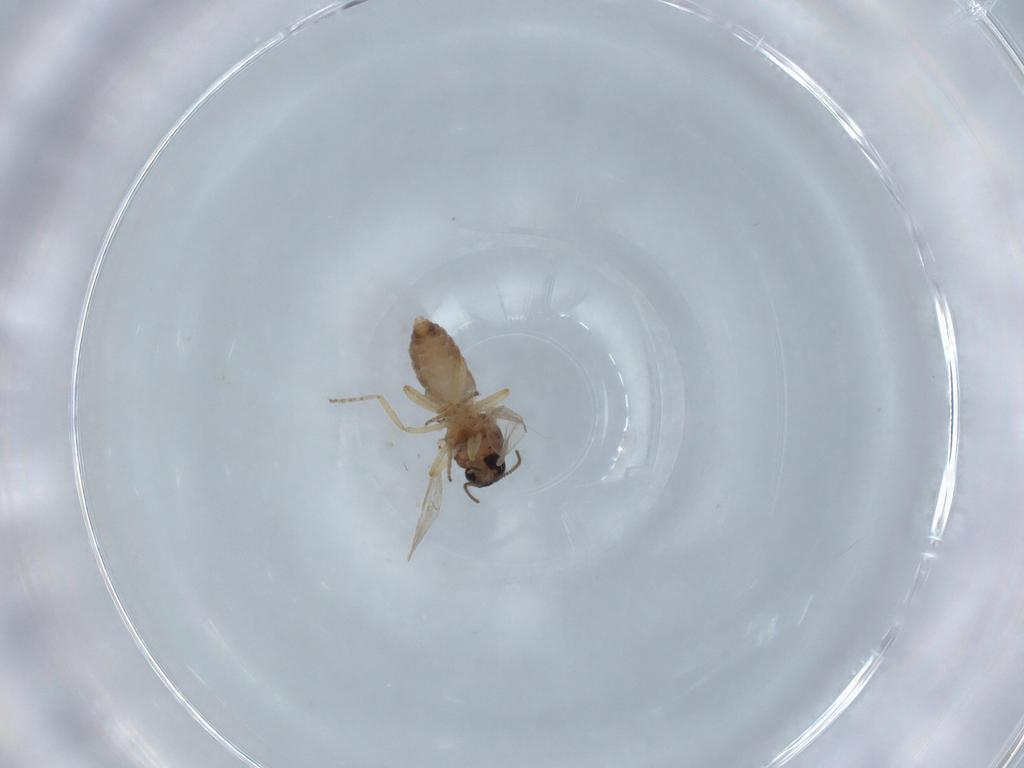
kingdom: Animalia
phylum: Arthropoda
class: Insecta
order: Diptera
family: Ceratopogonidae
